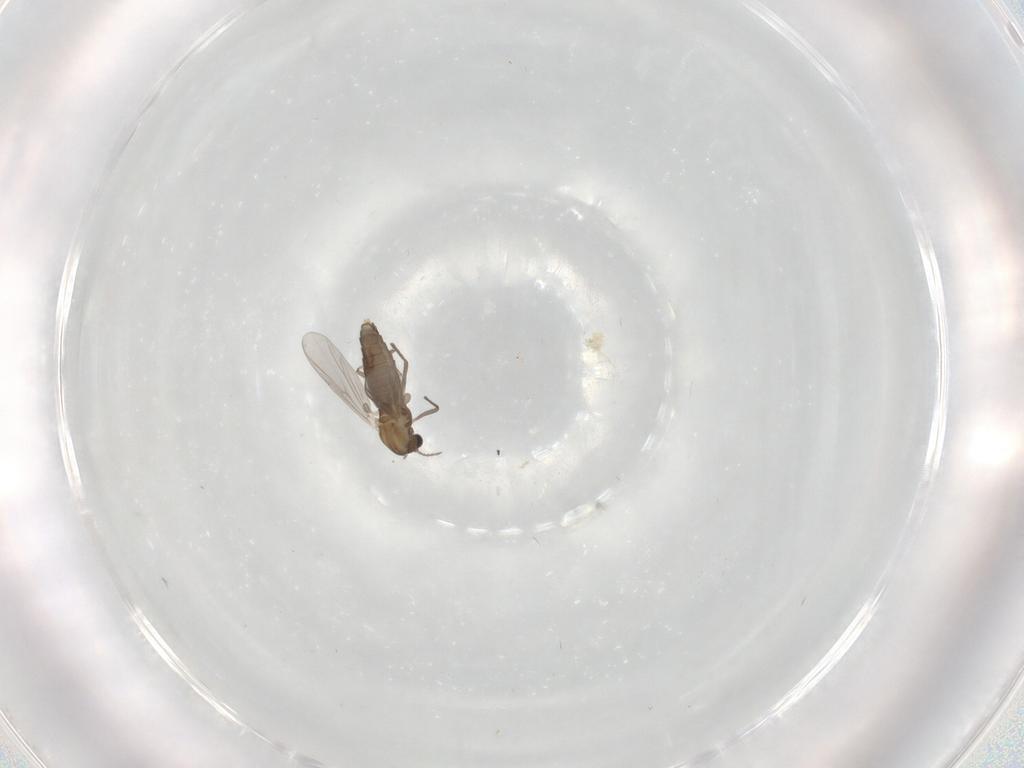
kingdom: Animalia
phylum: Arthropoda
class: Insecta
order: Diptera
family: Chironomidae
